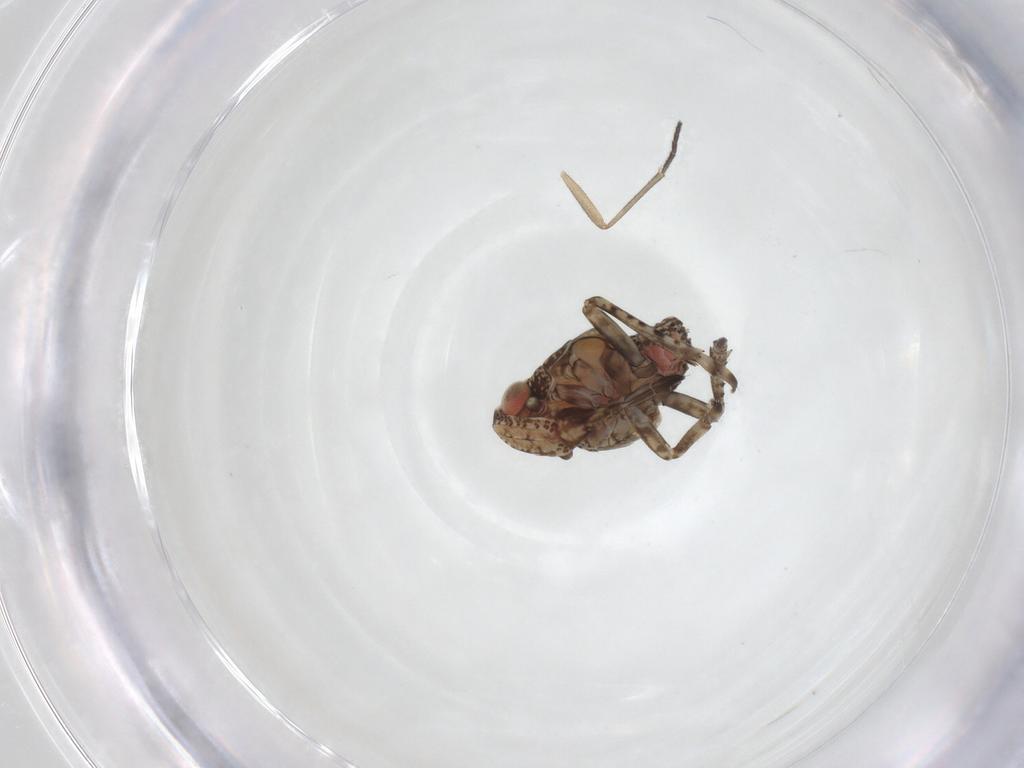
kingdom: Animalia
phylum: Arthropoda
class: Insecta
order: Hemiptera
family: Tropiduchidae
